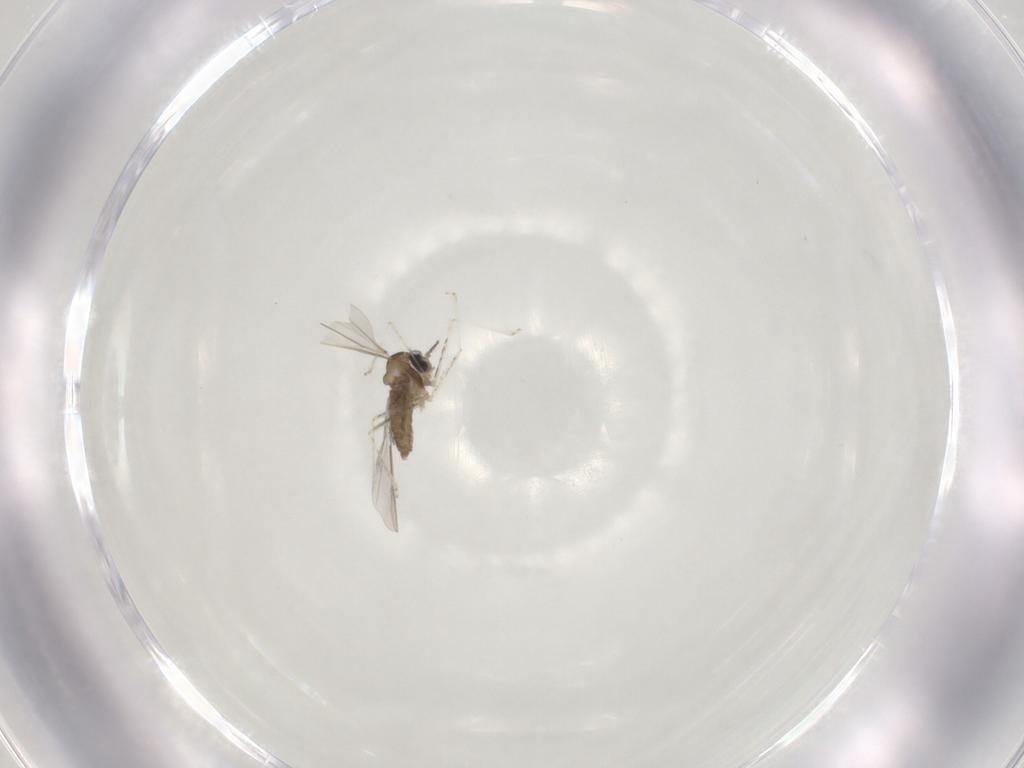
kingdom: Animalia
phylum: Arthropoda
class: Insecta
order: Diptera
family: Cecidomyiidae
